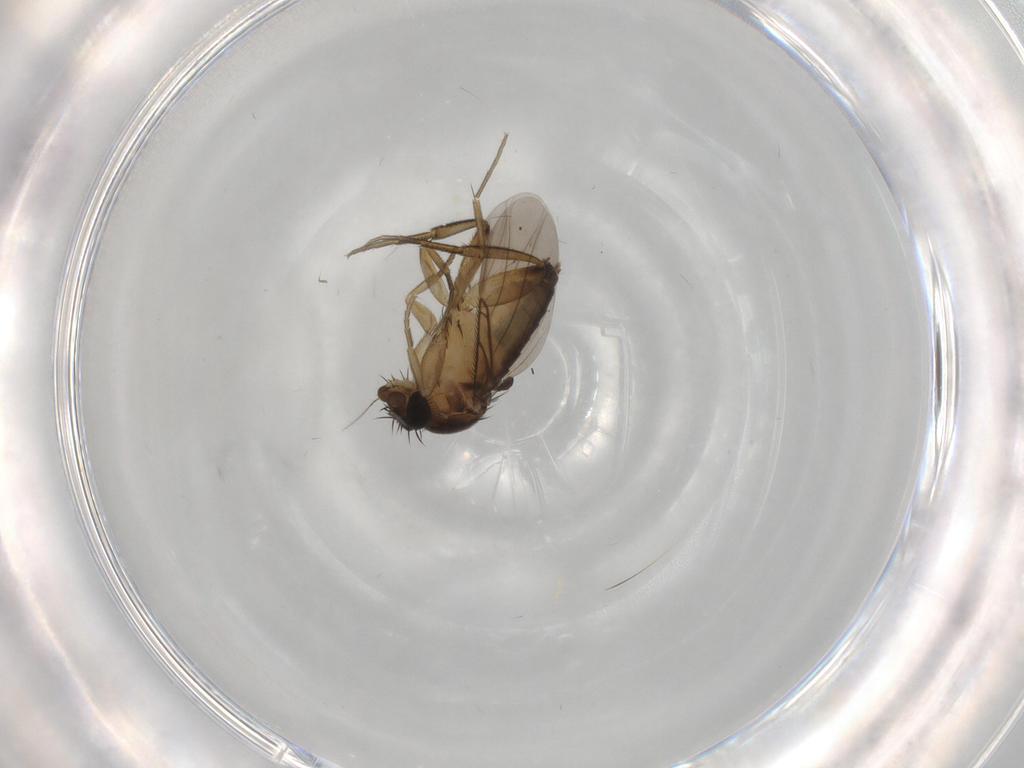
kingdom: Animalia
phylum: Arthropoda
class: Insecta
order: Diptera
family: Phoridae
